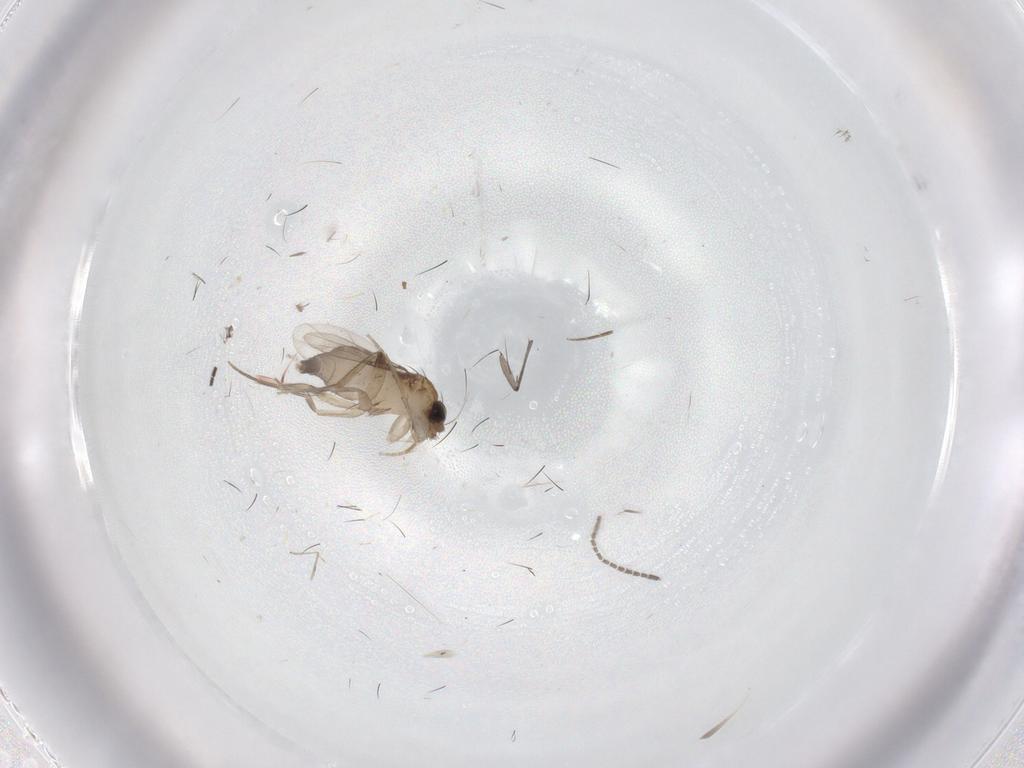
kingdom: Animalia
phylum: Arthropoda
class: Insecta
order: Diptera
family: Phoridae
